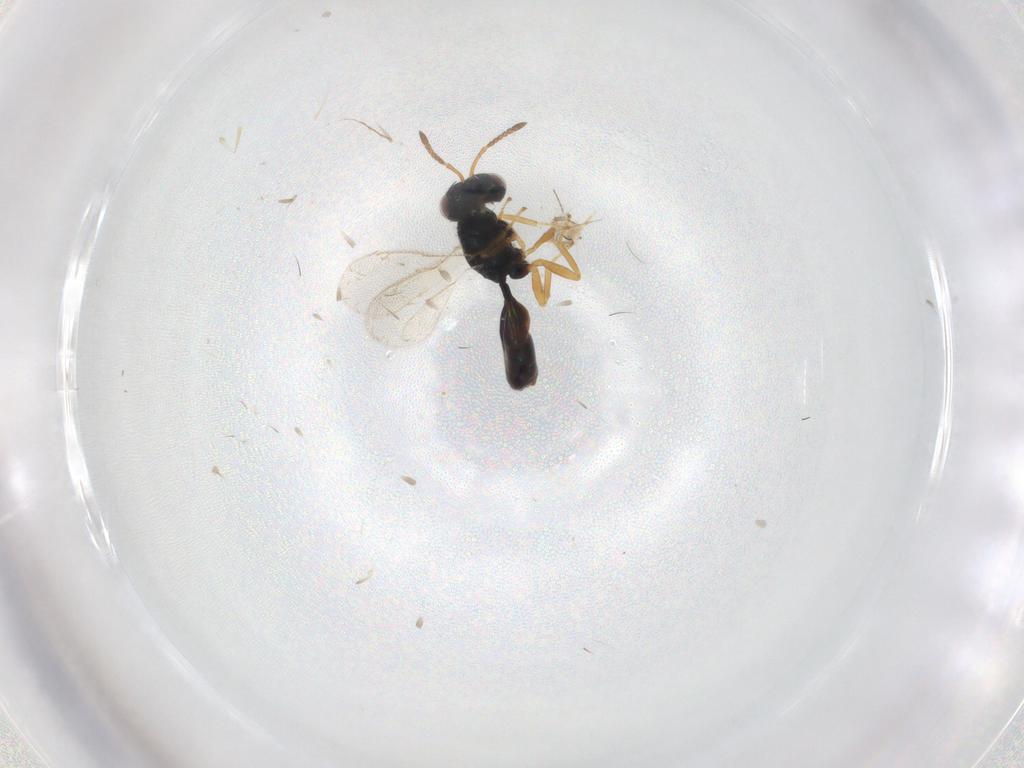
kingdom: Animalia
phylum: Arthropoda
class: Insecta
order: Hymenoptera
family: Pteromalidae
